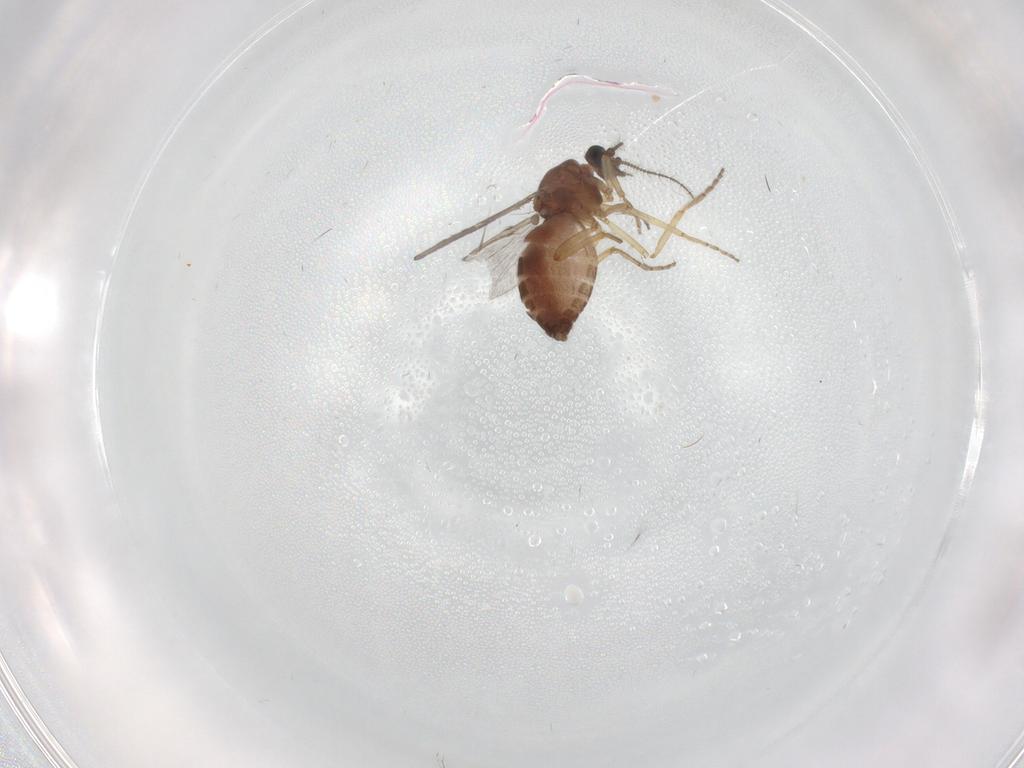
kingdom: Animalia
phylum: Arthropoda
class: Insecta
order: Diptera
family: Ceratopogonidae
